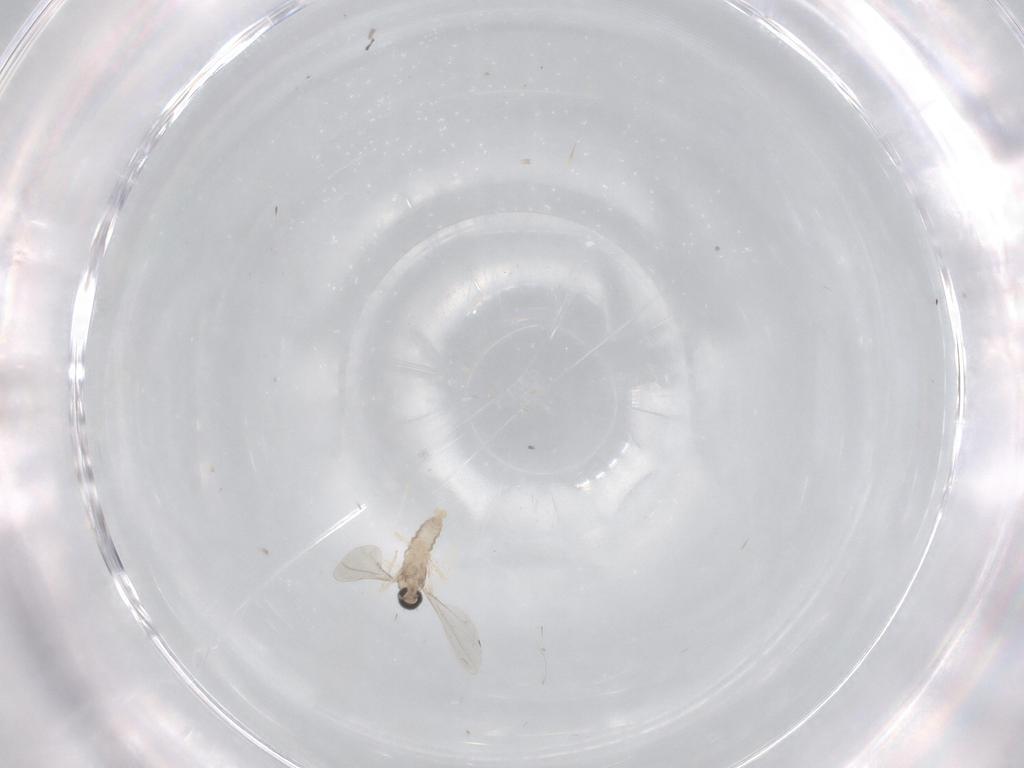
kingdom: Animalia
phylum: Arthropoda
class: Insecta
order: Diptera
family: Cecidomyiidae
